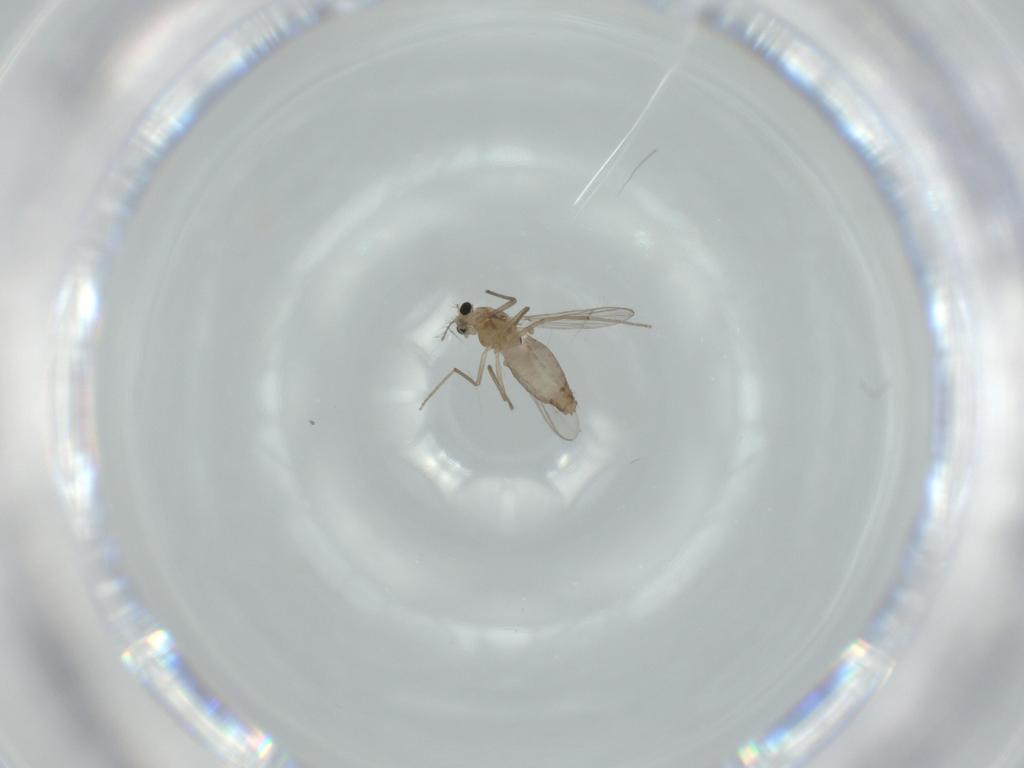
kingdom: Animalia
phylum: Arthropoda
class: Insecta
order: Diptera
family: Chironomidae
